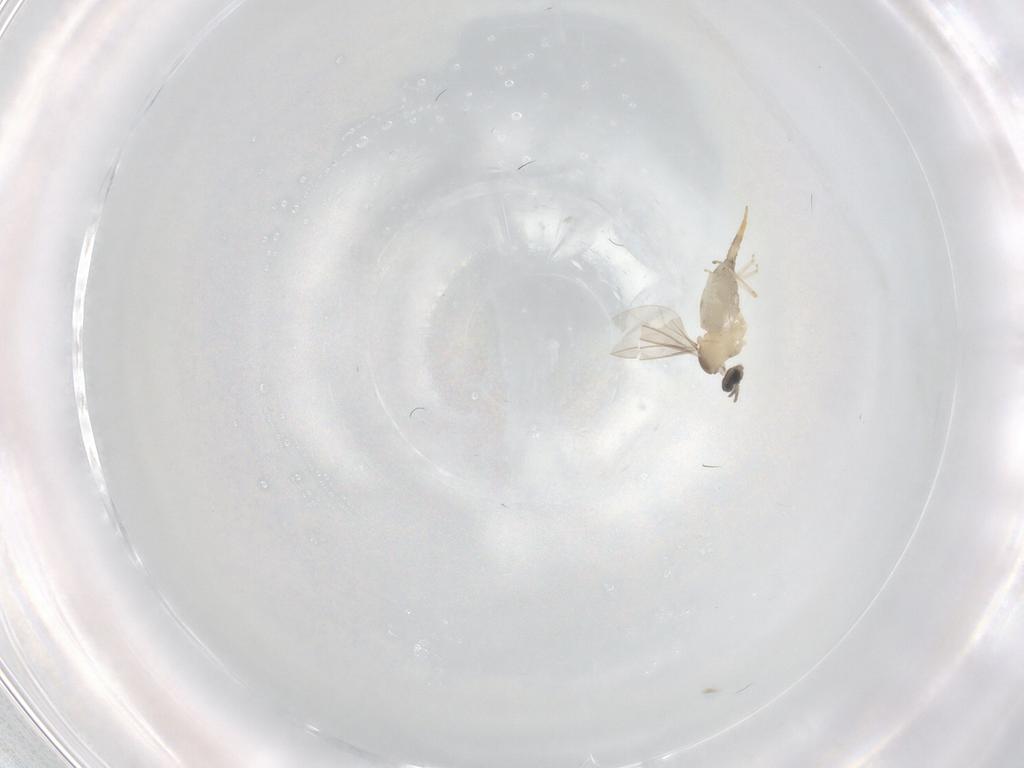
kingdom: Animalia
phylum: Arthropoda
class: Insecta
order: Diptera
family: Cecidomyiidae
